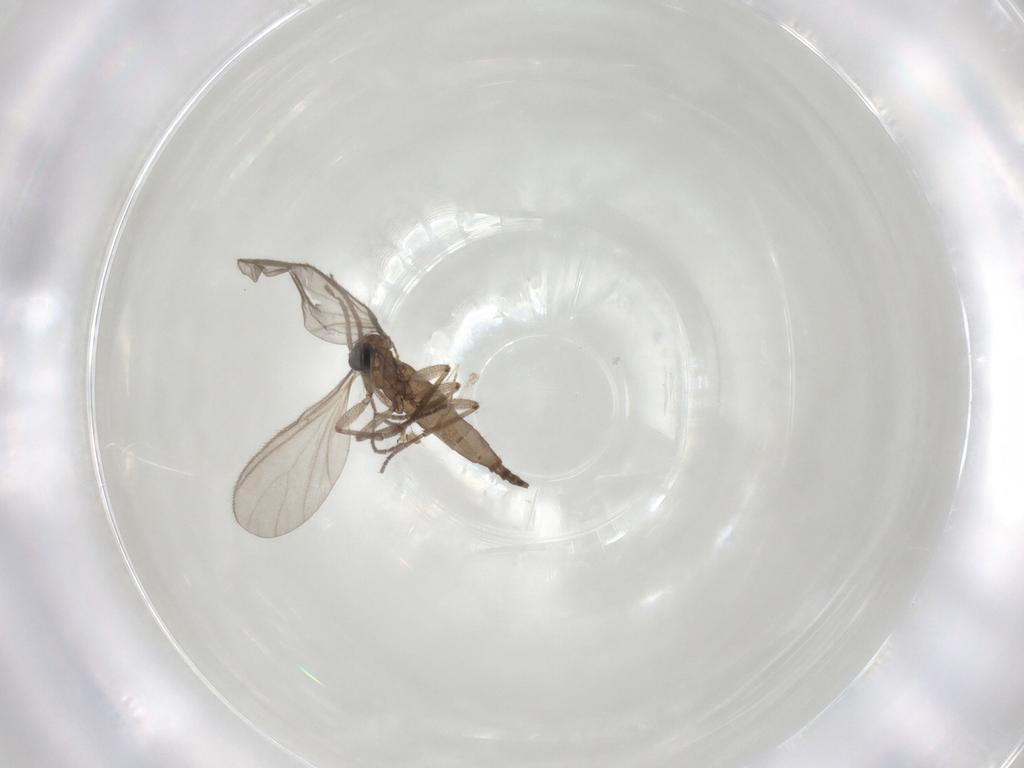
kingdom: Animalia
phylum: Arthropoda
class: Insecta
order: Diptera
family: Sciaridae
